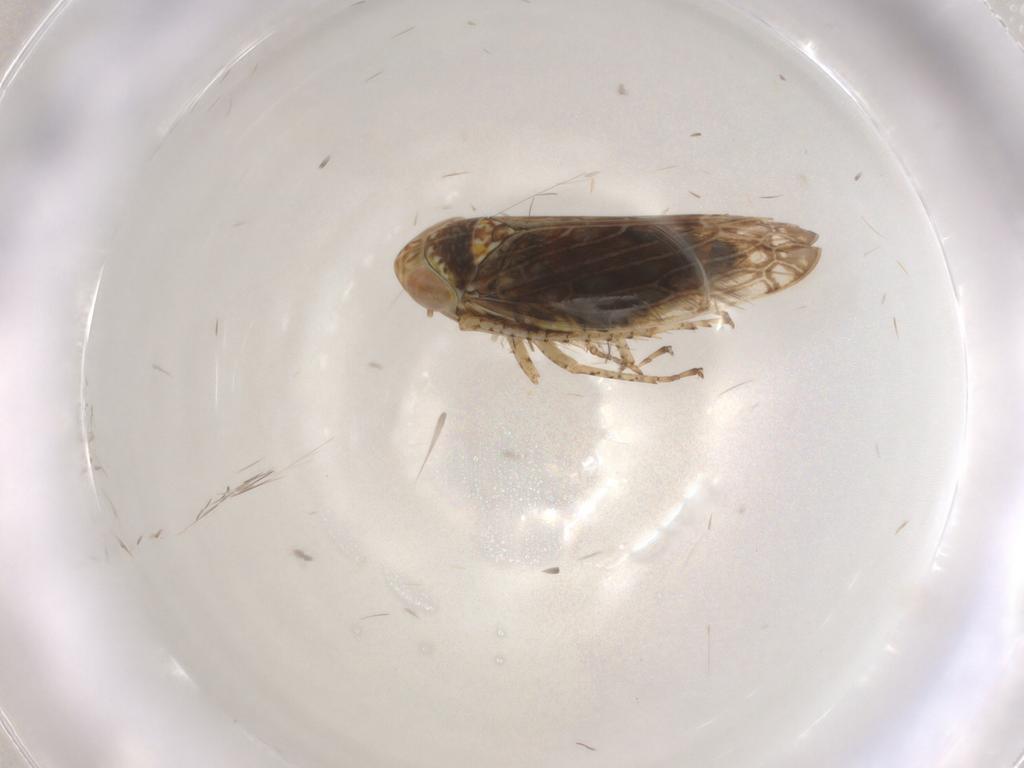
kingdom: Animalia
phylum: Arthropoda
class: Insecta
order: Hemiptera
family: Cicadellidae
